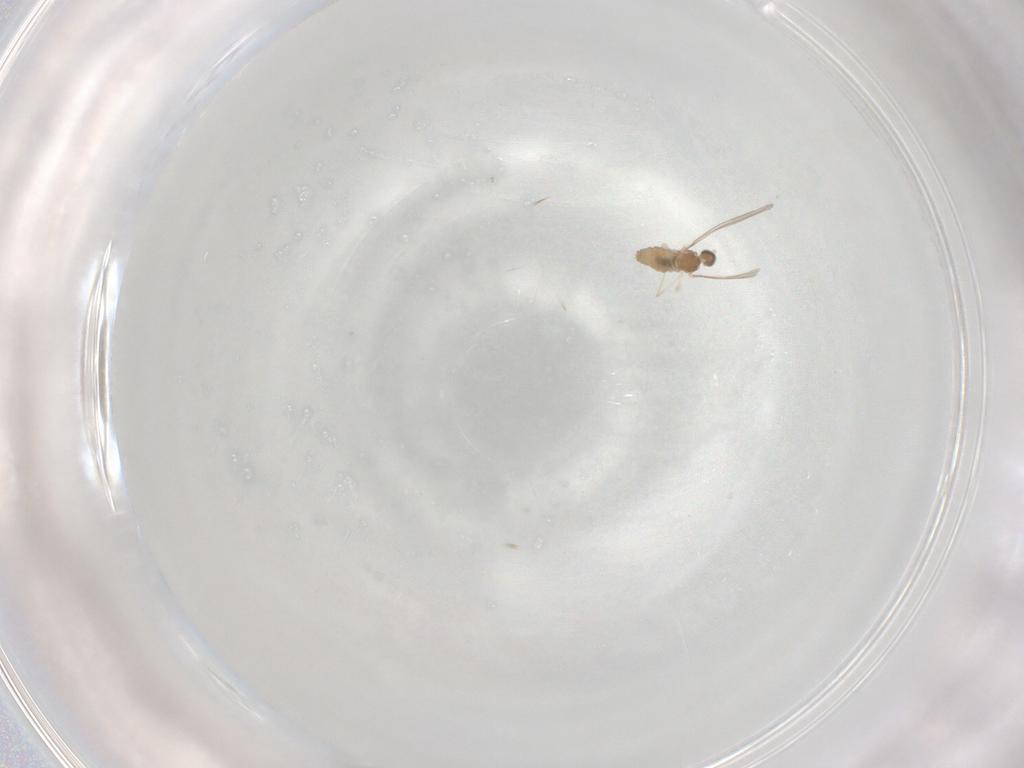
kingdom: Animalia
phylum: Arthropoda
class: Insecta
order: Diptera
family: Cecidomyiidae
